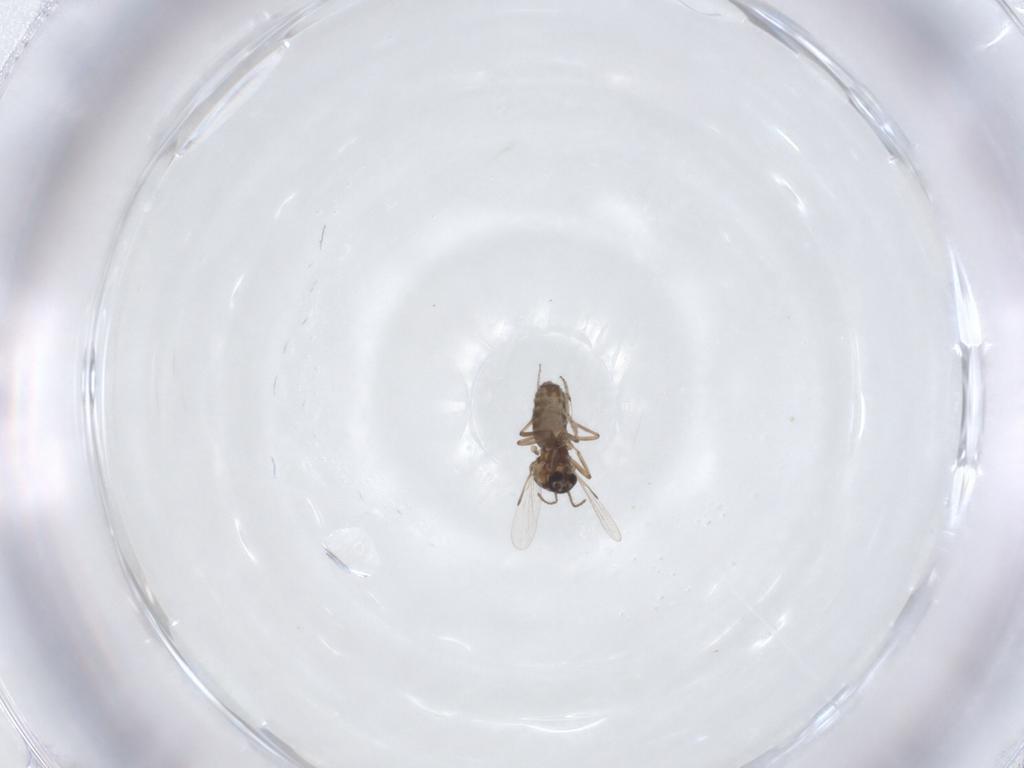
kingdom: Animalia
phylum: Arthropoda
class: Insecta
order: Diptera
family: Ceratopogonidae
